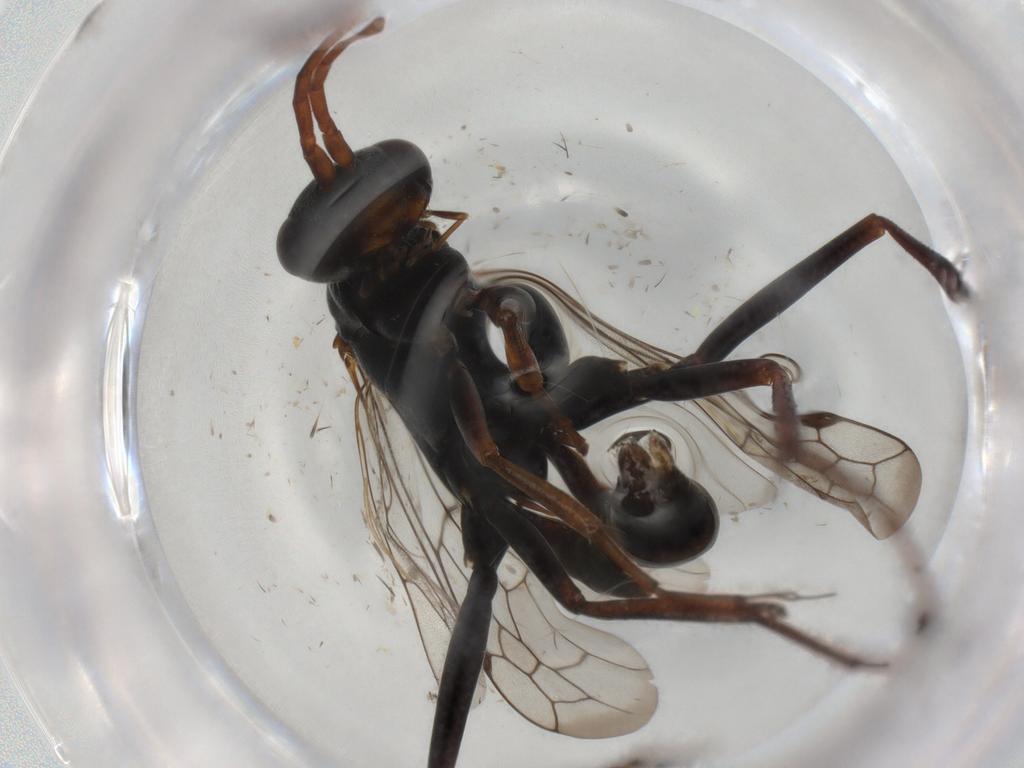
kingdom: Animalia
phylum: Arthropoda
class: Insecta
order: Hymenoptera
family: Pompilidae
